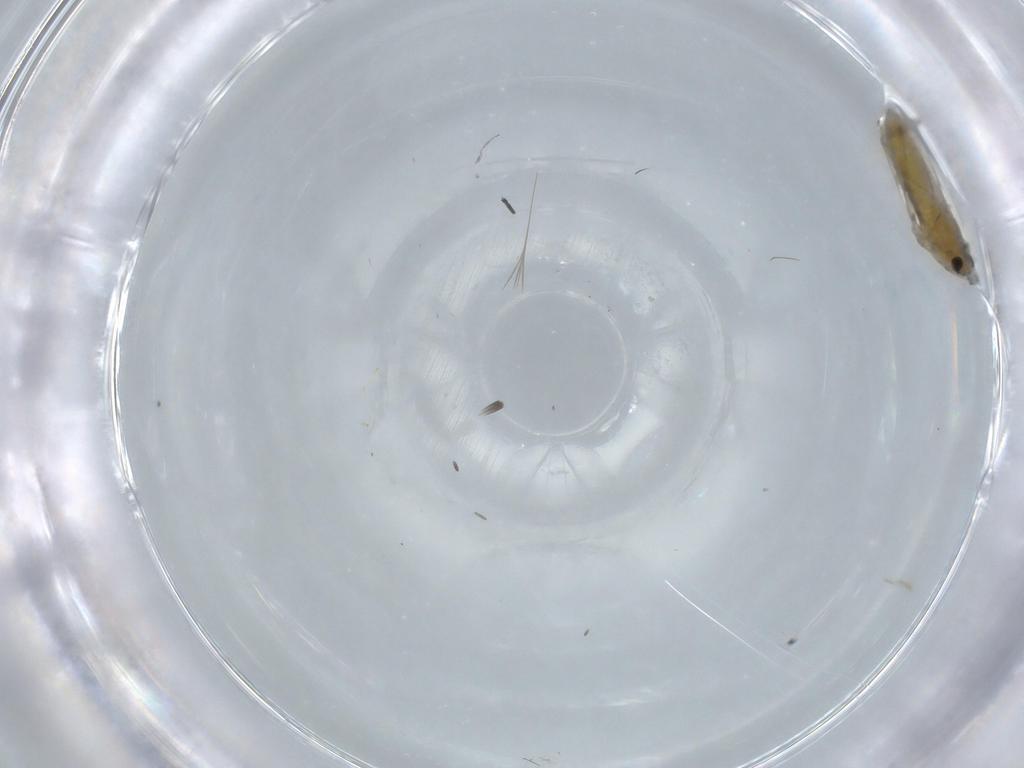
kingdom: Animalia
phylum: Arthropoda
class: Insecta
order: Diptera
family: Chironomidae
